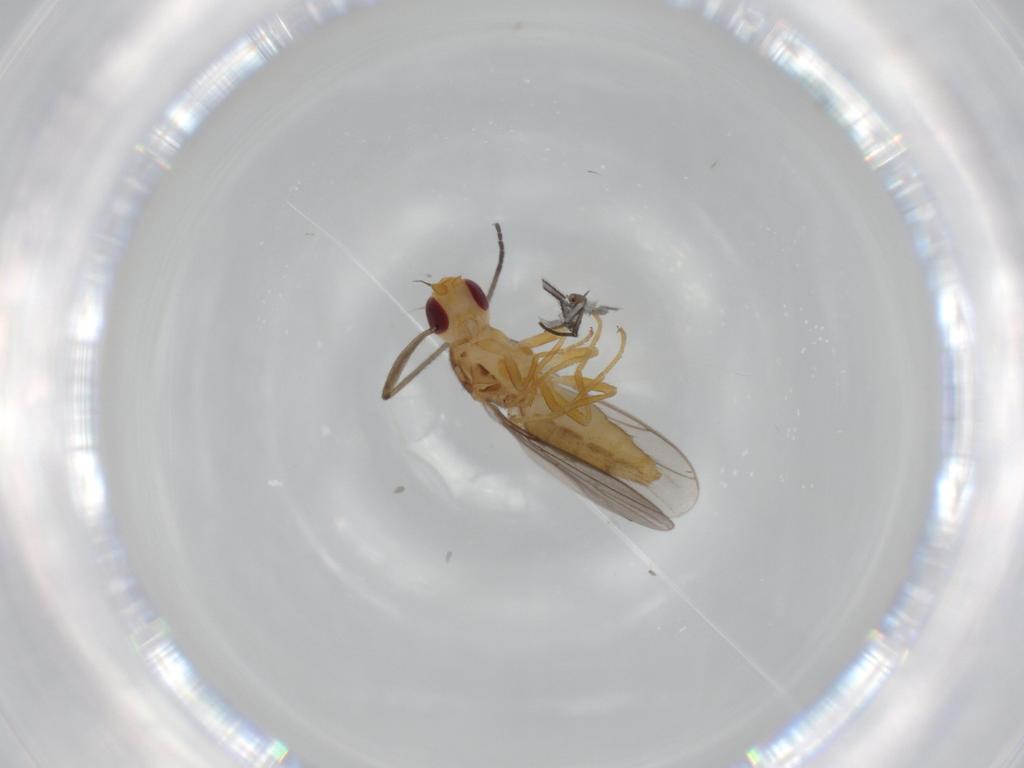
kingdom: Animalia
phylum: Arthropoda
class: Insecta
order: Diptera
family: Chloropidae
